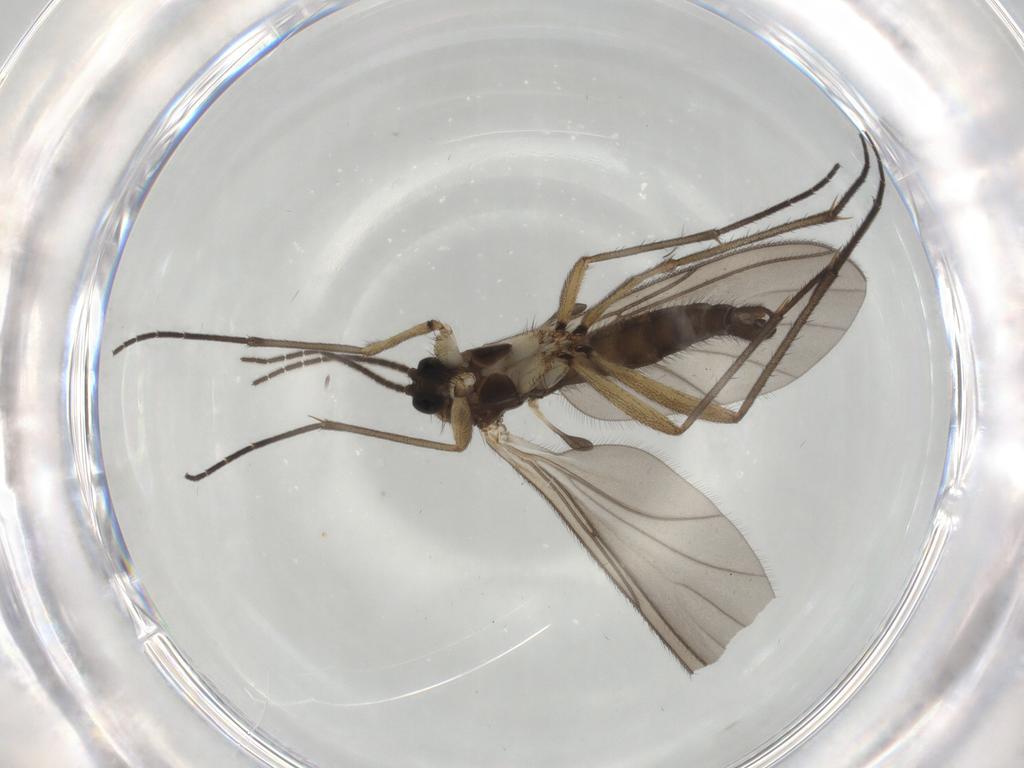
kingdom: Animalia
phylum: Arthropoda
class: Insecta
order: Diptera
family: Sciaridae
